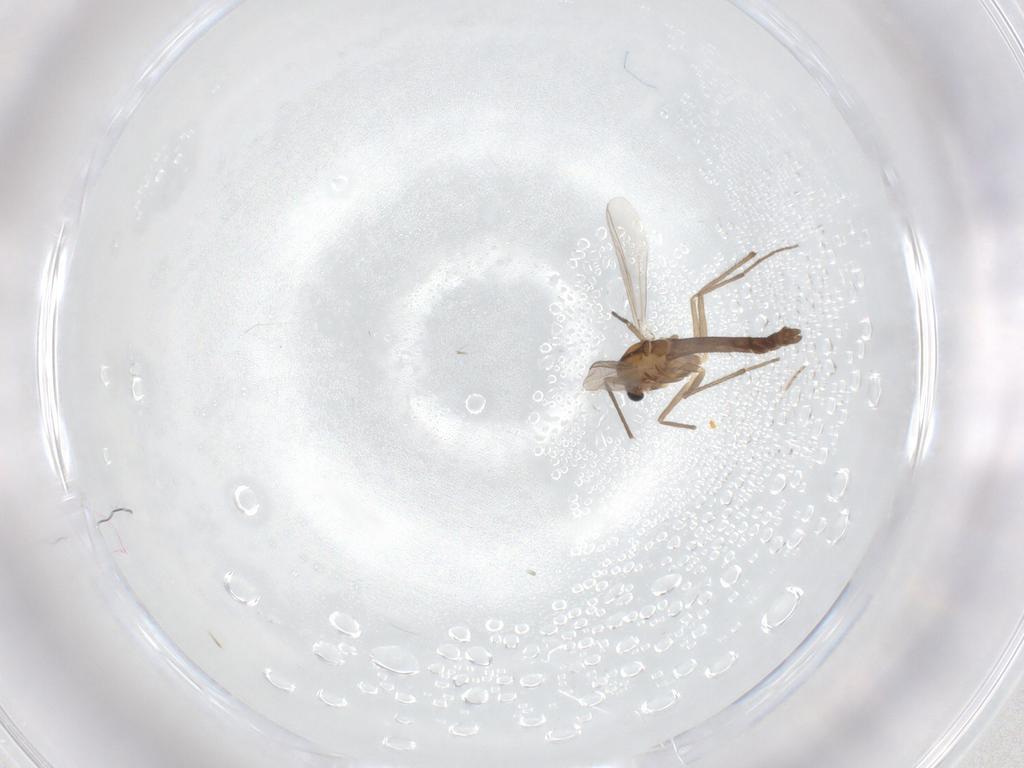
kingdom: Animalia
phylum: Arthropoda
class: Insecta
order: Diptera
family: Chironomidae
